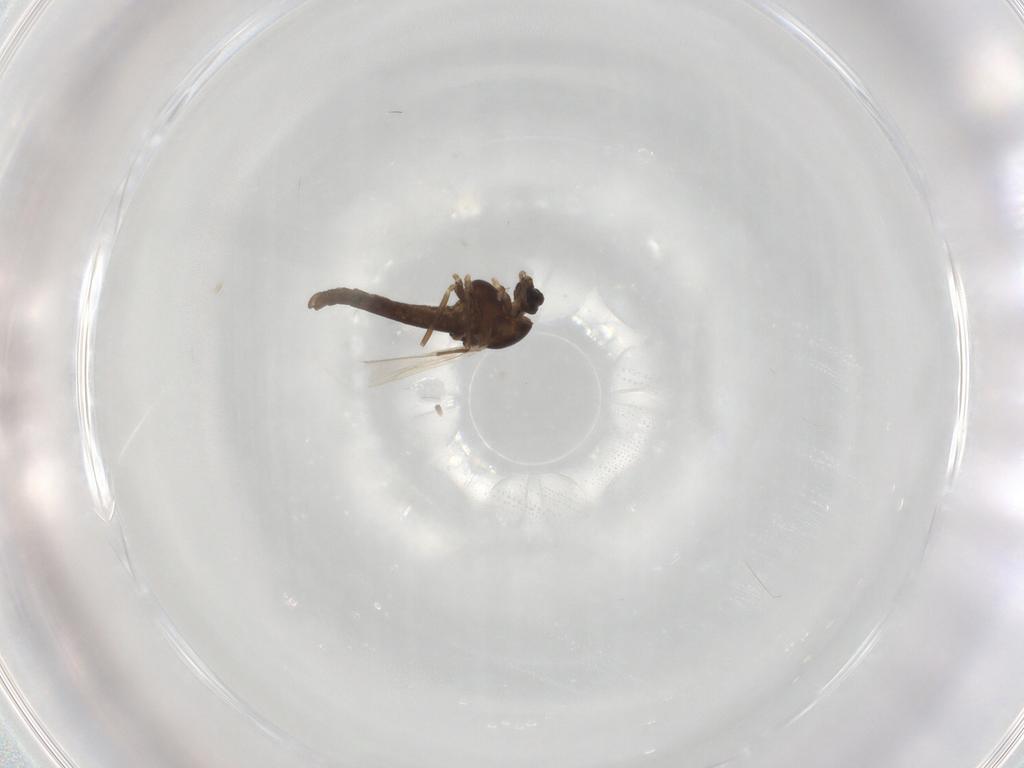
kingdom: Animalia
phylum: Arthropoda
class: Insecta
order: Diptera
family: Chironomidae
